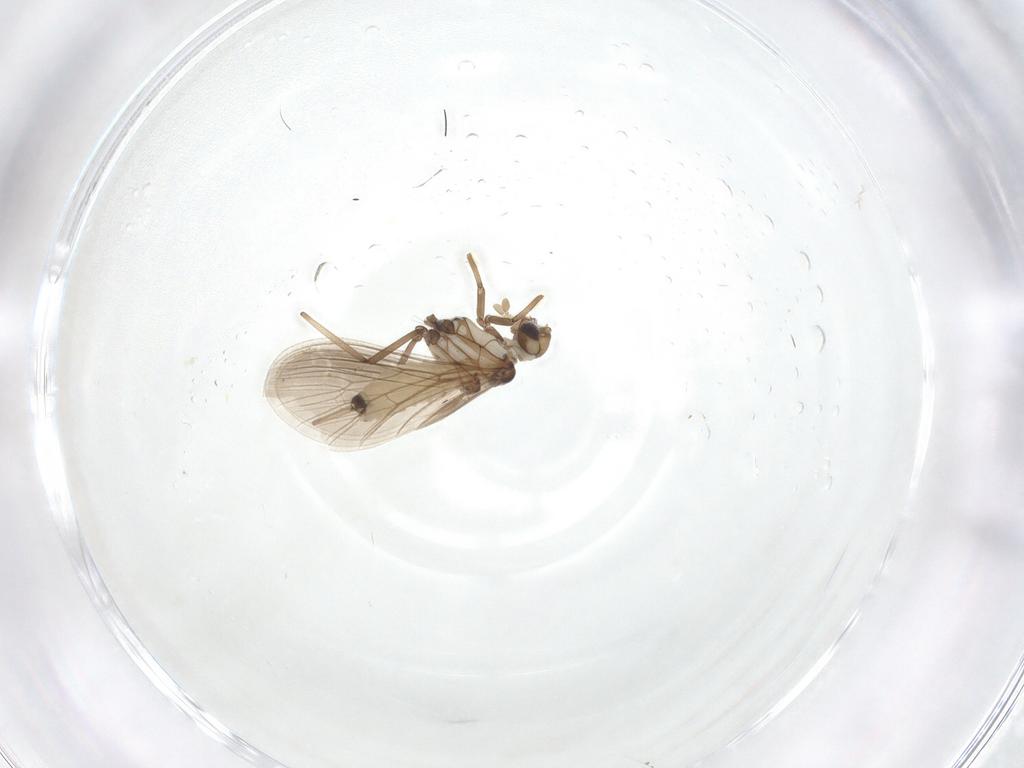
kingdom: Animalia
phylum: Arthropoda
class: Insecta
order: Neuroptera
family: Coniopterygidae
